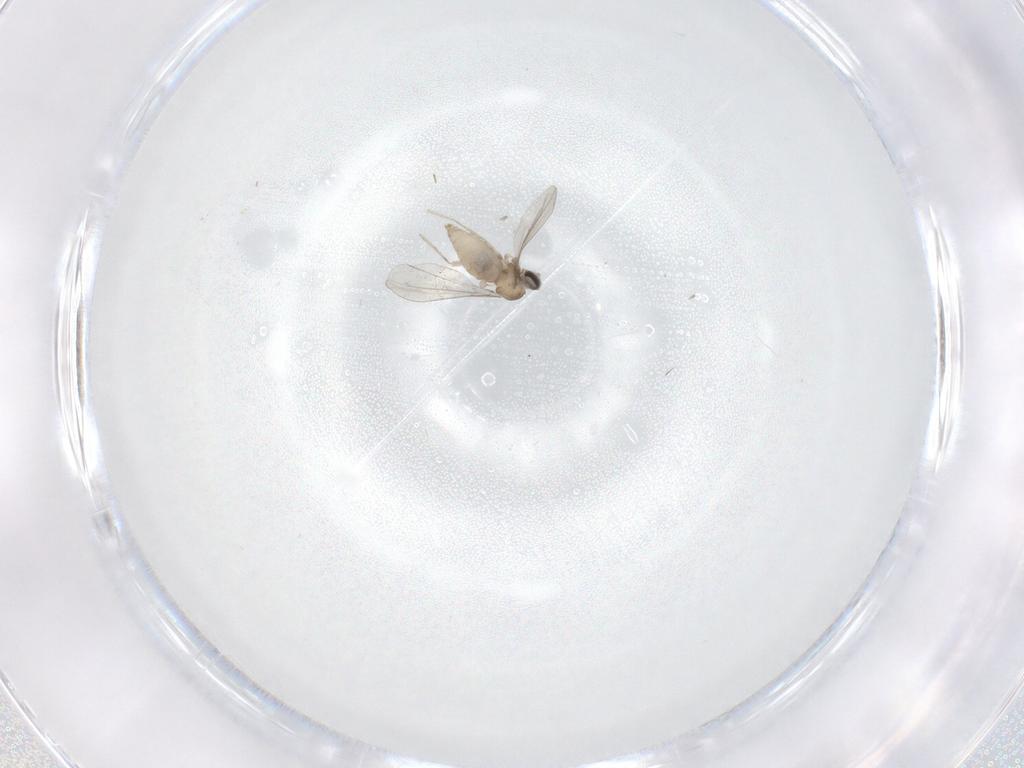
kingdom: Animalia
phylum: Arthropoda
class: Insecta
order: Diptera
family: Cecidomyiidae
